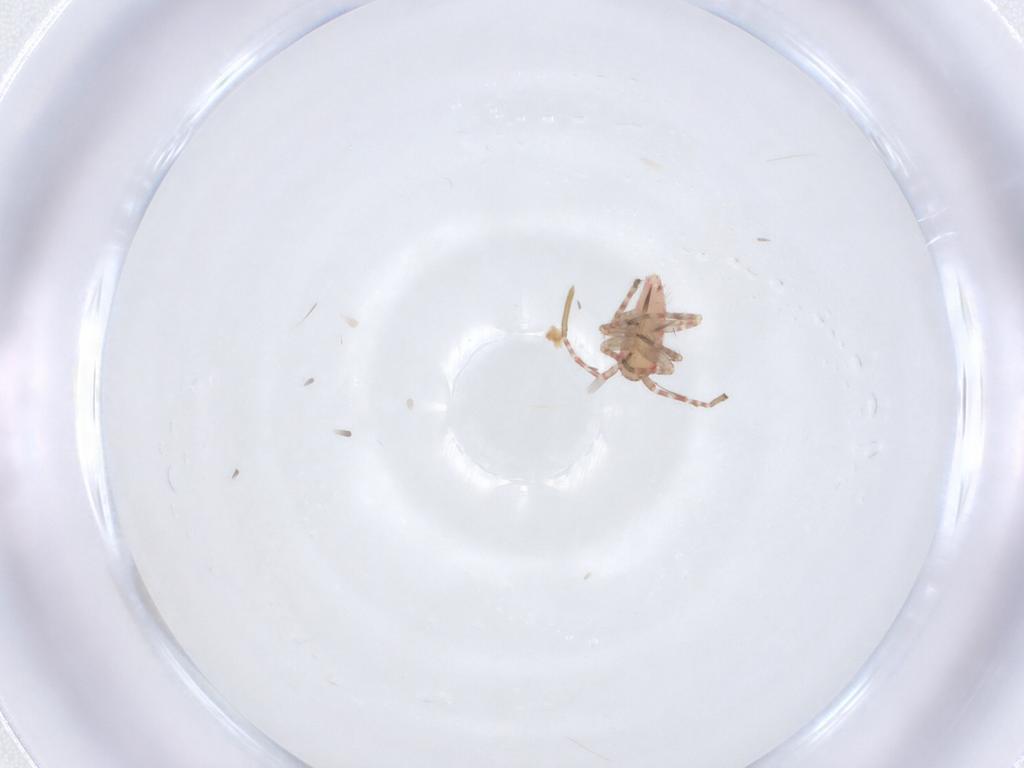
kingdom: Animalia
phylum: Arthropoda
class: Insecta
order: Hemiptera
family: Miridae
